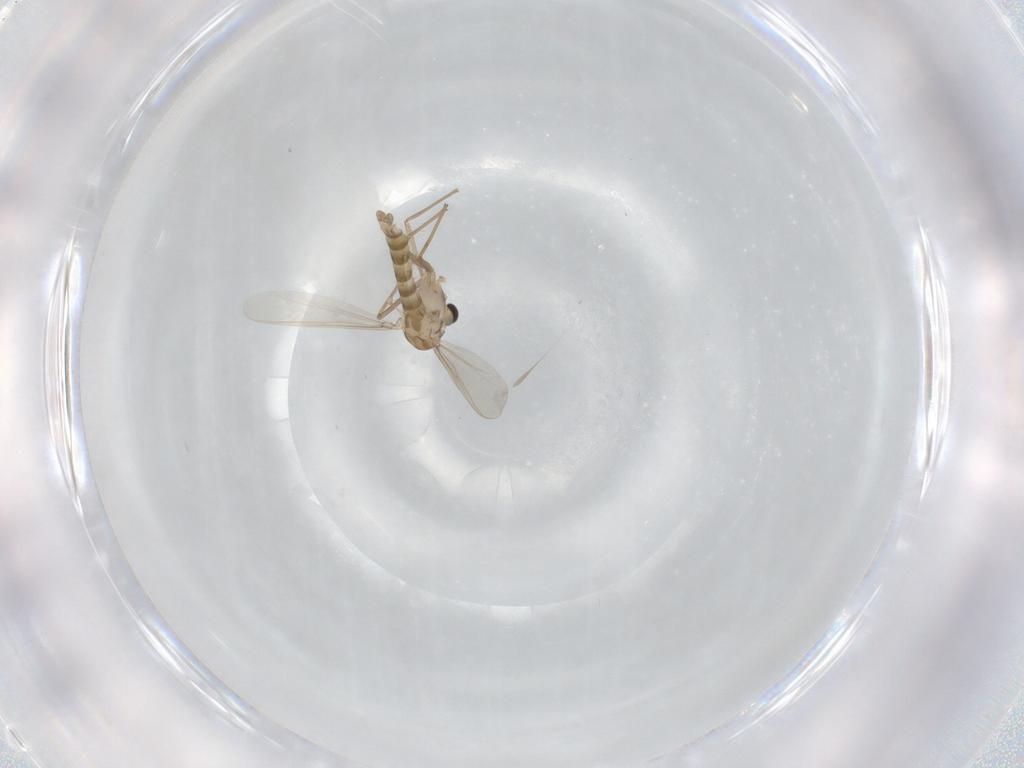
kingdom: Animalia
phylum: Arthropoda
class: Insecta
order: Diptera
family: Chironomidae
